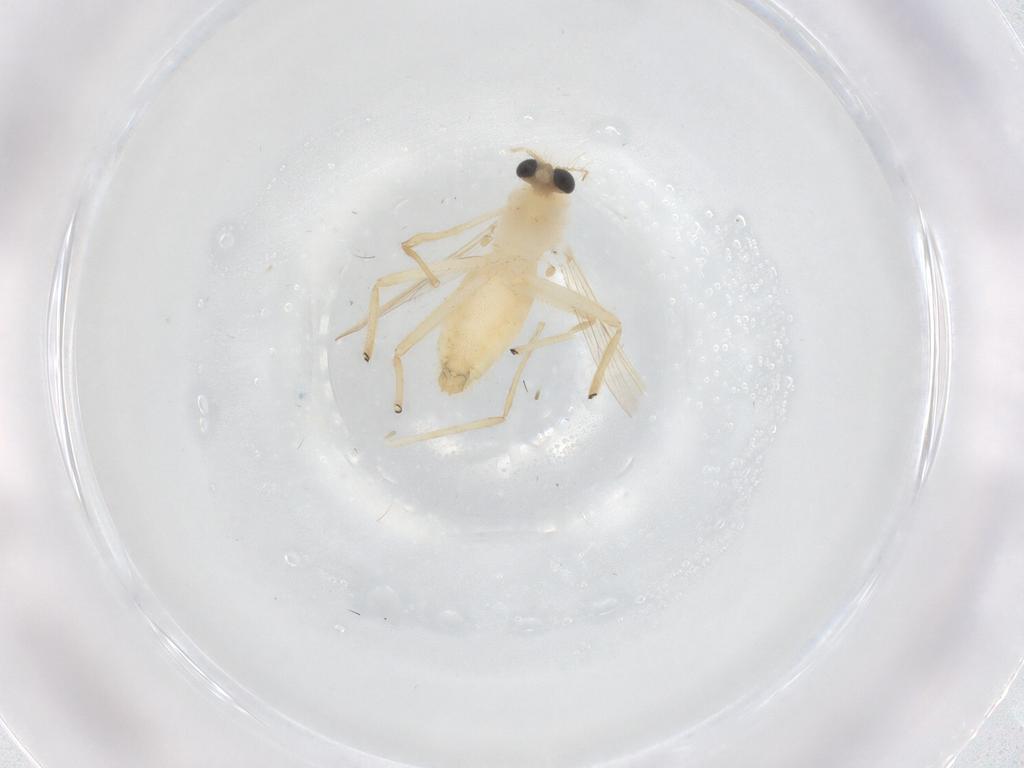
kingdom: Animalia
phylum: Arthropoda
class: Insecta
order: Diptera
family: Chironomidae
